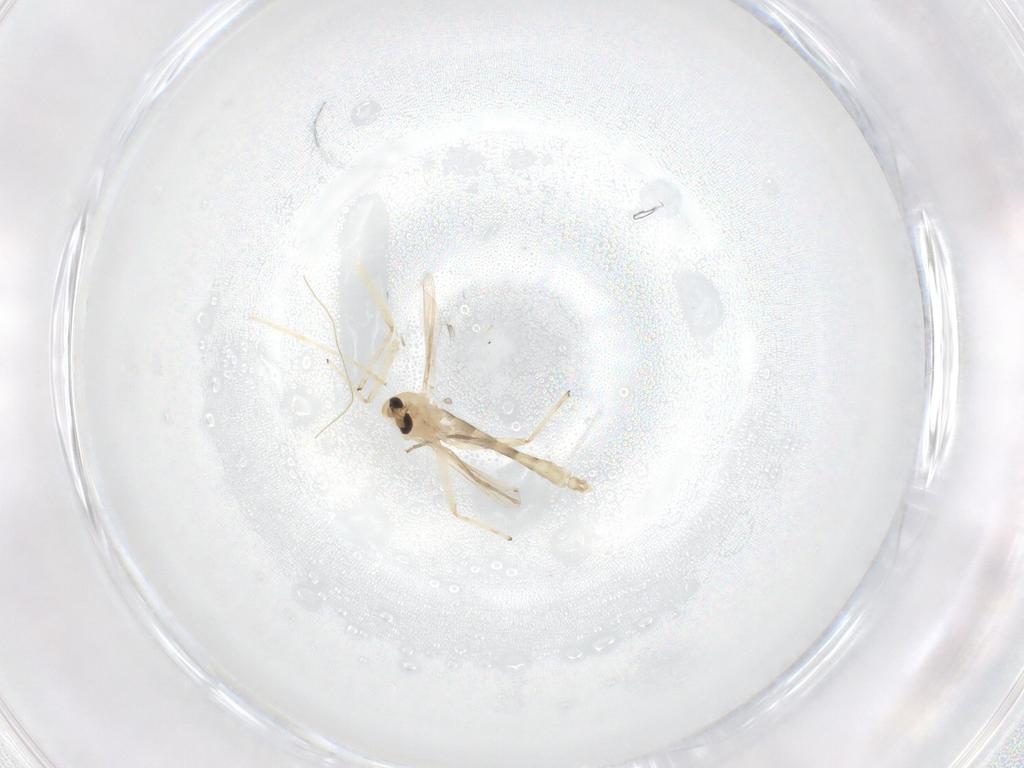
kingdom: Animalia
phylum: Arthropoda
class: Insecta
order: Diptera
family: Chironomidae
